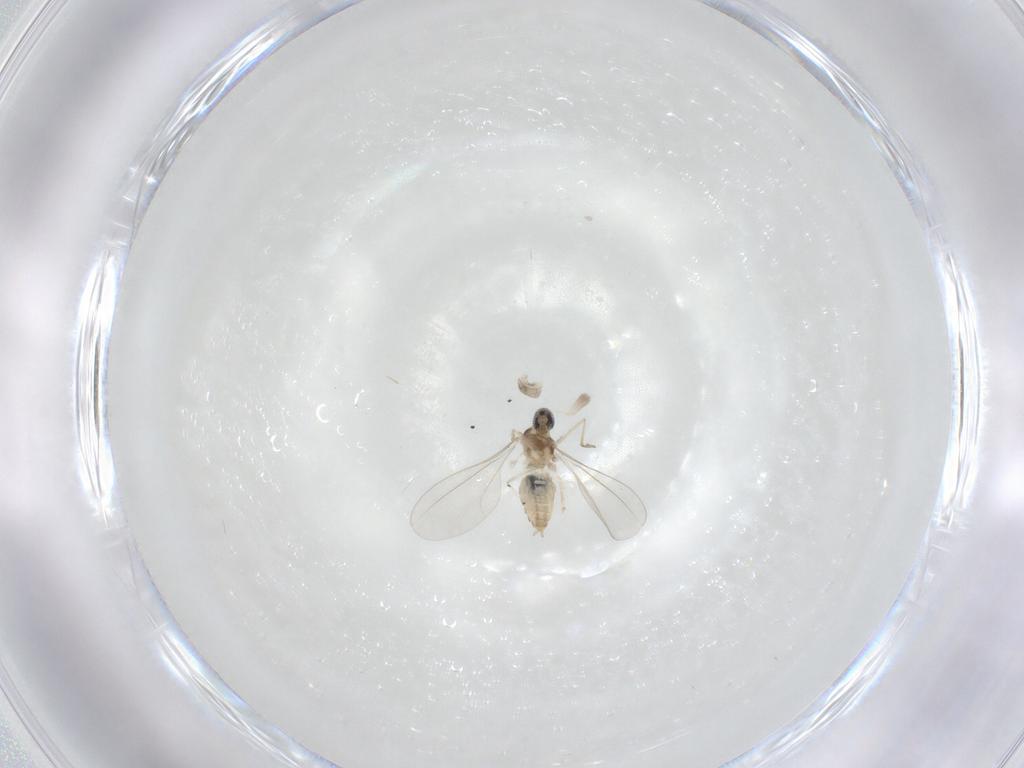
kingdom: Animalia
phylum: Arthropoda
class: Insecta
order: Diptera
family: Cecidomyiidae
